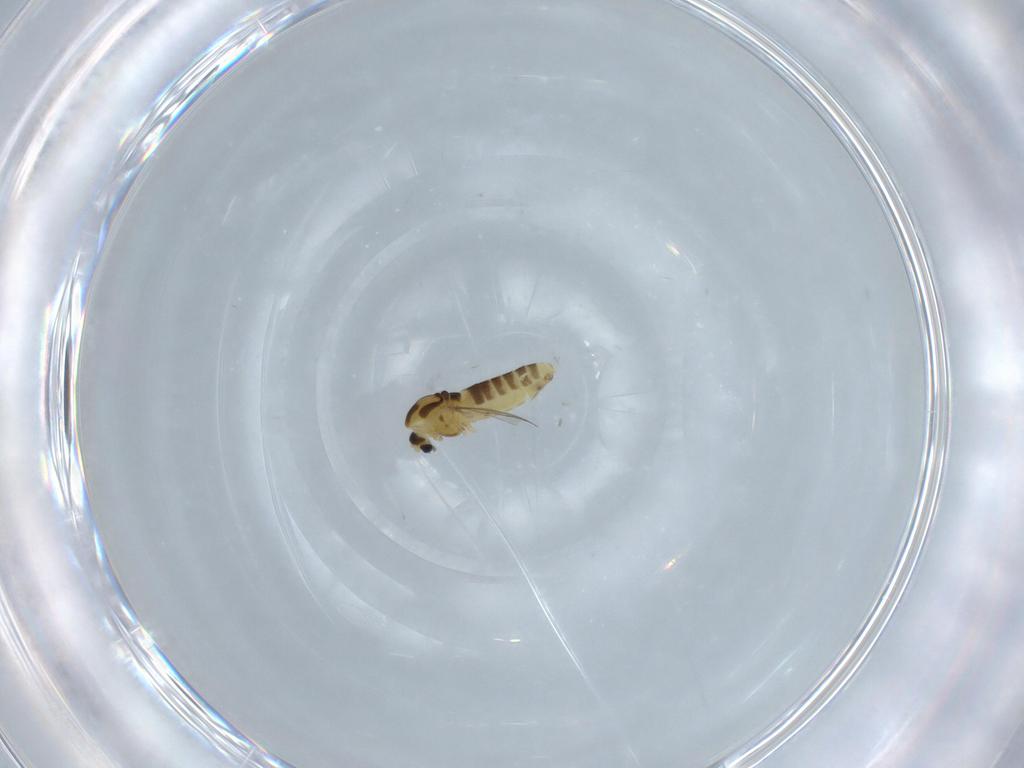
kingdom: Animalia
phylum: Arthropoda
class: Insecta
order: Diptera
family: Chironomidae
